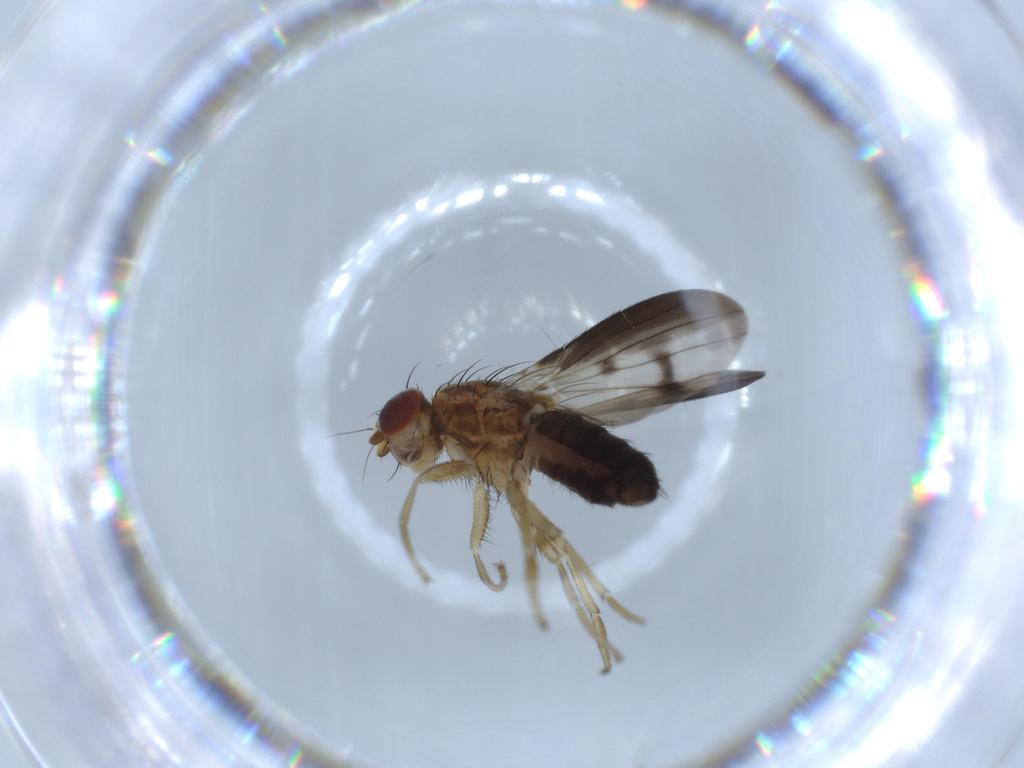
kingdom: Animalia
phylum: Arthropoda
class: Insecta
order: Diptera
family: Heleomyzidae
